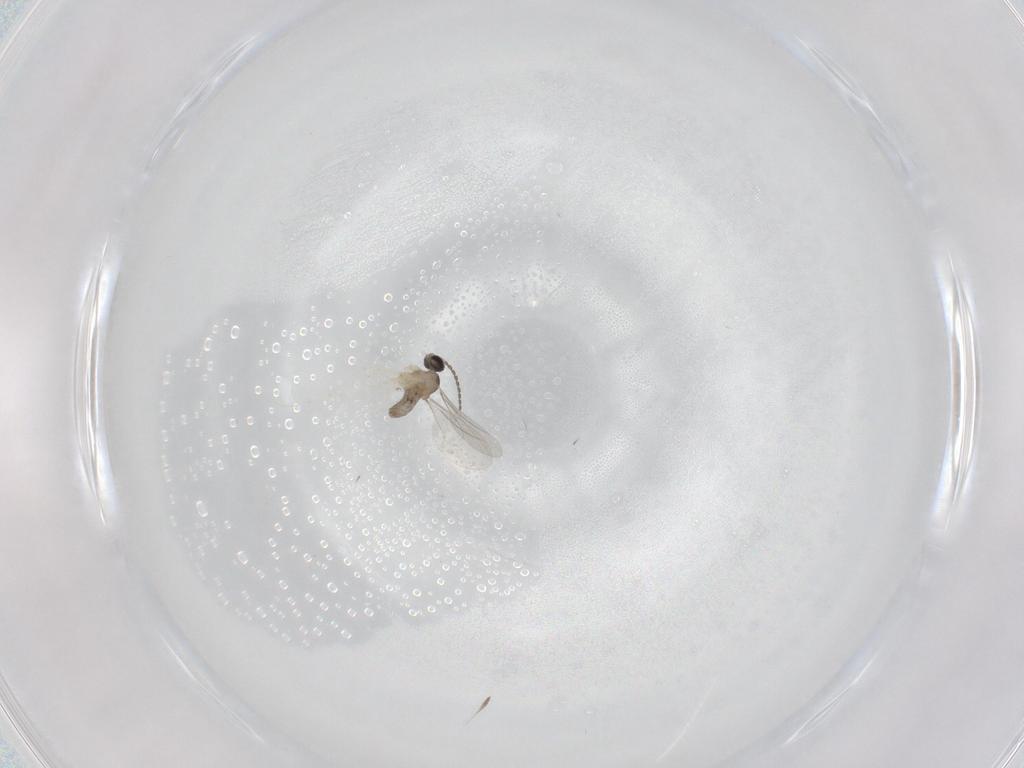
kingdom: Animalia
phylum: Arthropoda
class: Insecta
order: Diptera
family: Cecidomyiidae
